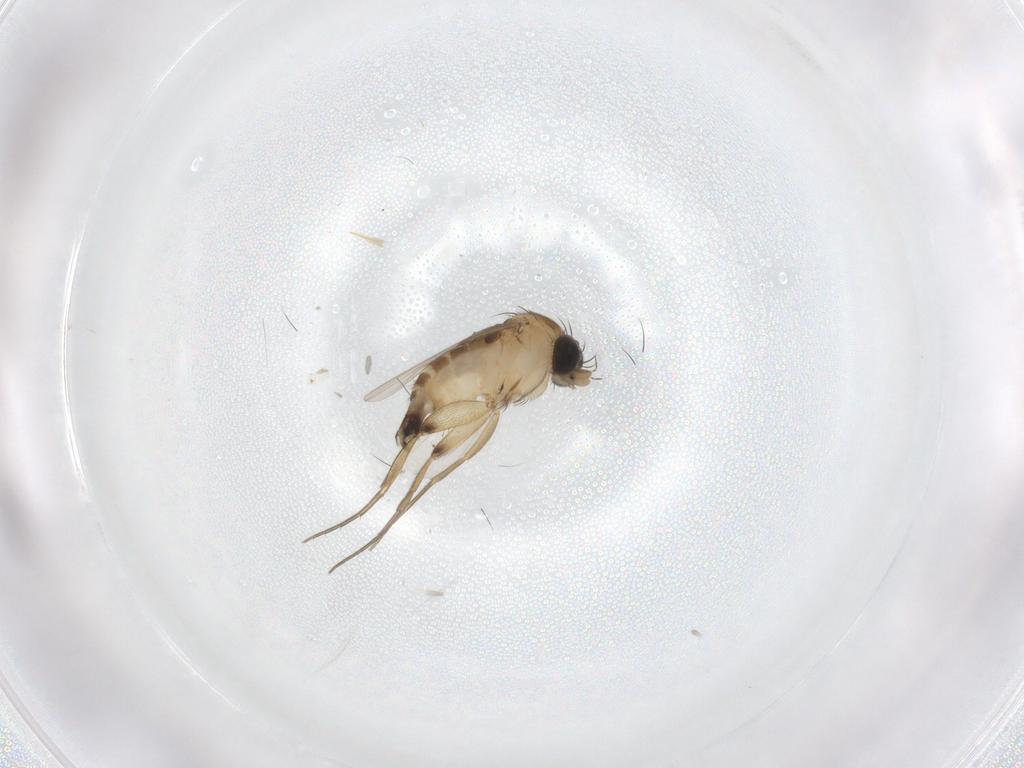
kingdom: Animalia
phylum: Arthropoda
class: Insecta
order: Diptera
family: Phoridae
